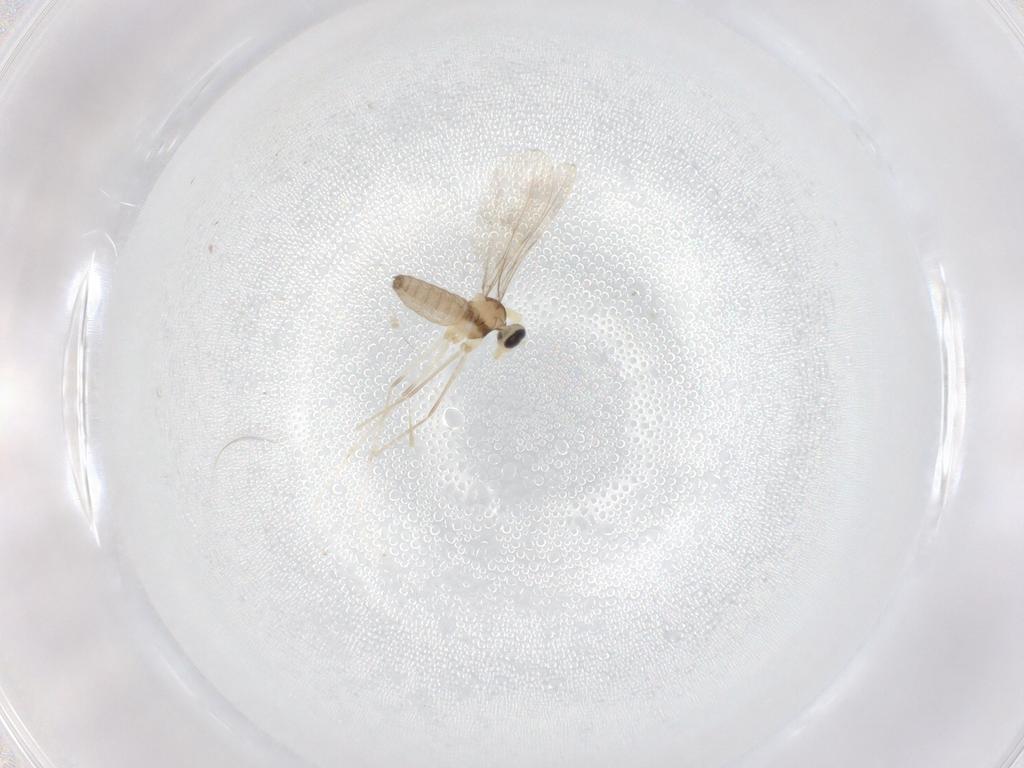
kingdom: Animalia
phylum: Arthropoda
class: Insecta
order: Diptera
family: Cecidomyiidae
